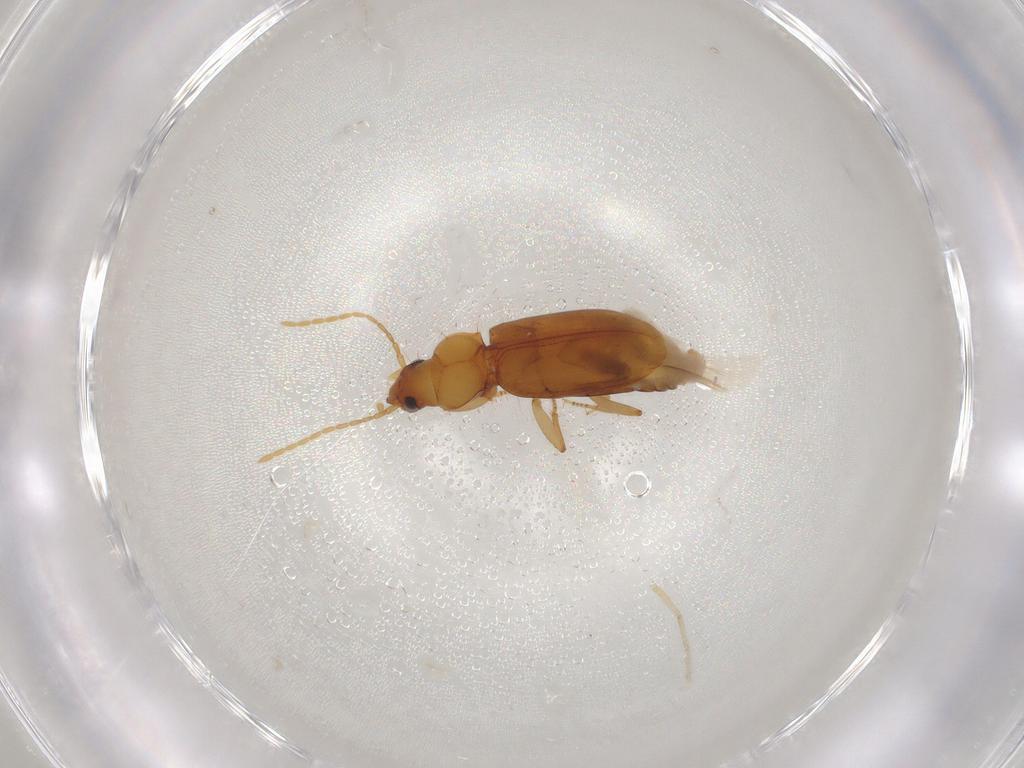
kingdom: Animalia
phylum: Arthropoda
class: Insecta
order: Coleoptera
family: Carabidae
